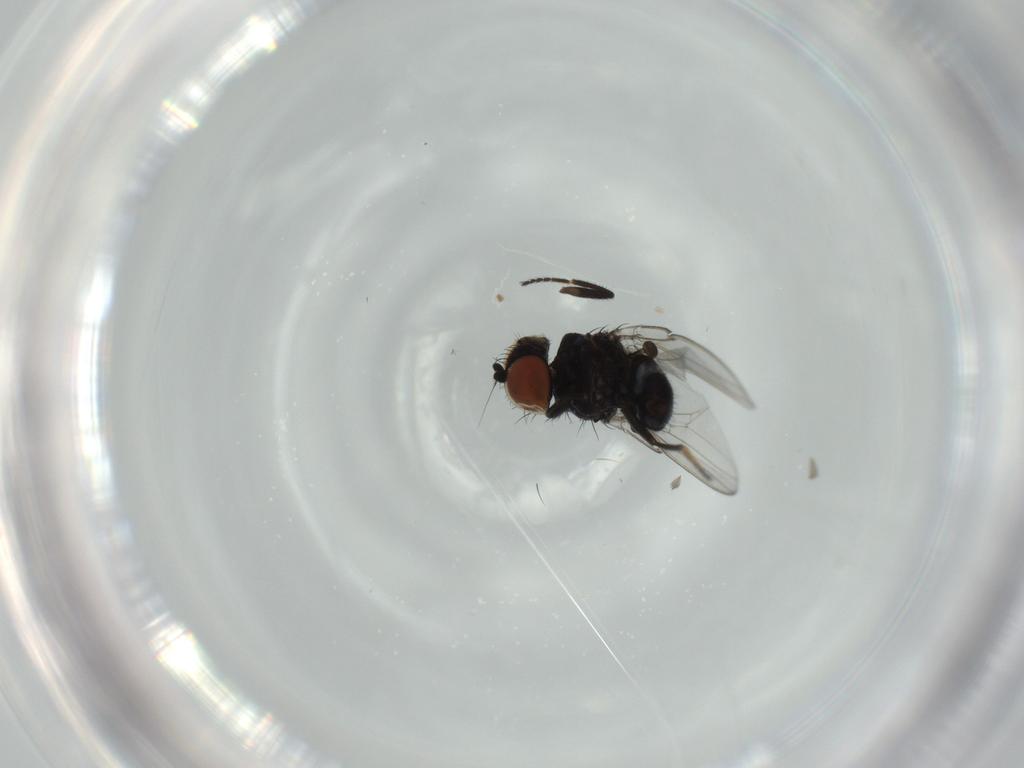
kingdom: Animalia
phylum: Arthropoda
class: Insecta
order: Diptera
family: Milichiidae
